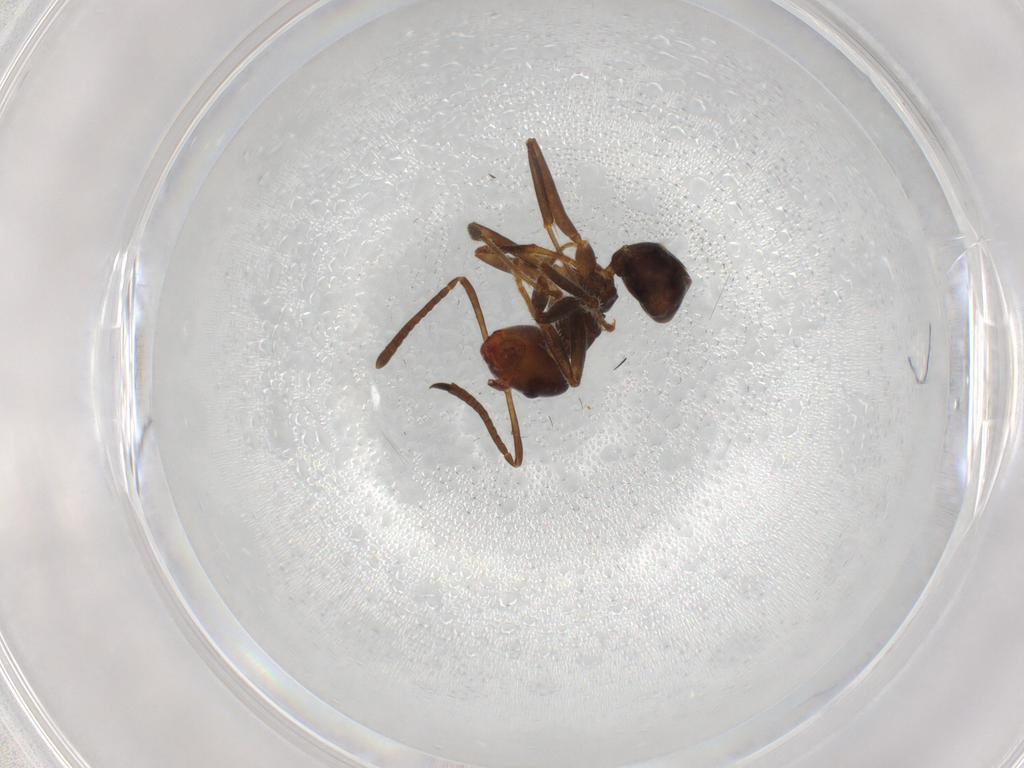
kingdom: Animalia
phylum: Arthropoda
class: Insecta
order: Hymenoptera
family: Formicidae
